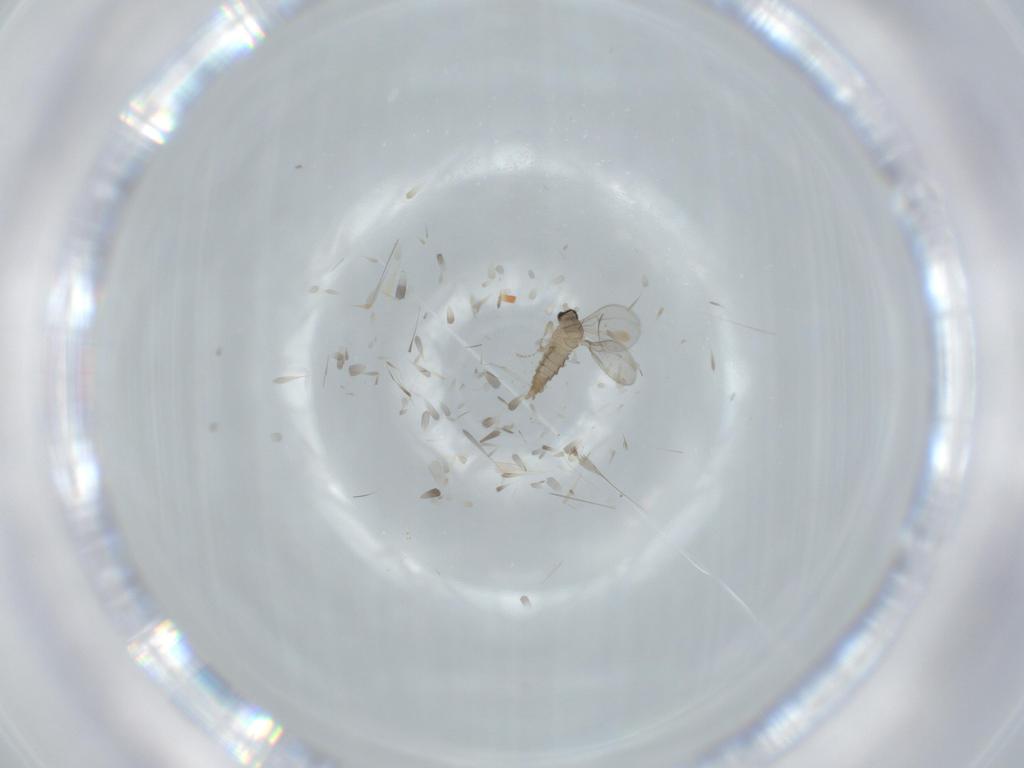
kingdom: Animalia
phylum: Arthropoda
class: Insecta
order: Diptera
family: Cecidomyiidae
